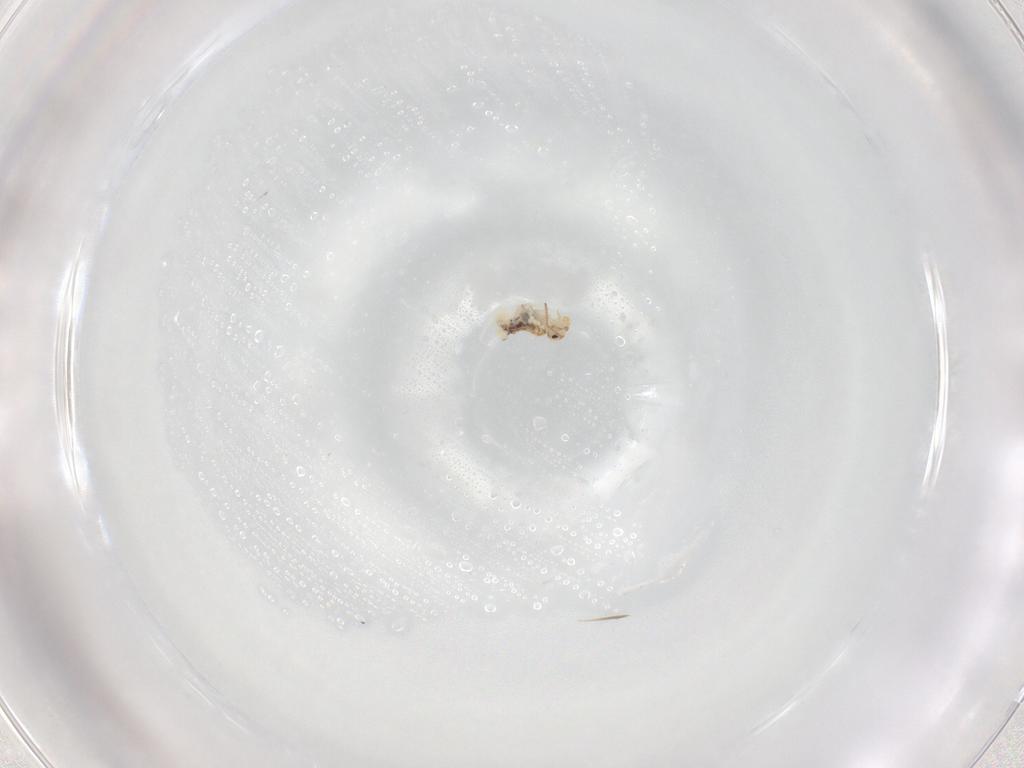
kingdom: Animalia
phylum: Arthropoda
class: Collembola
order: Symphypleona
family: Bourletiellidae
